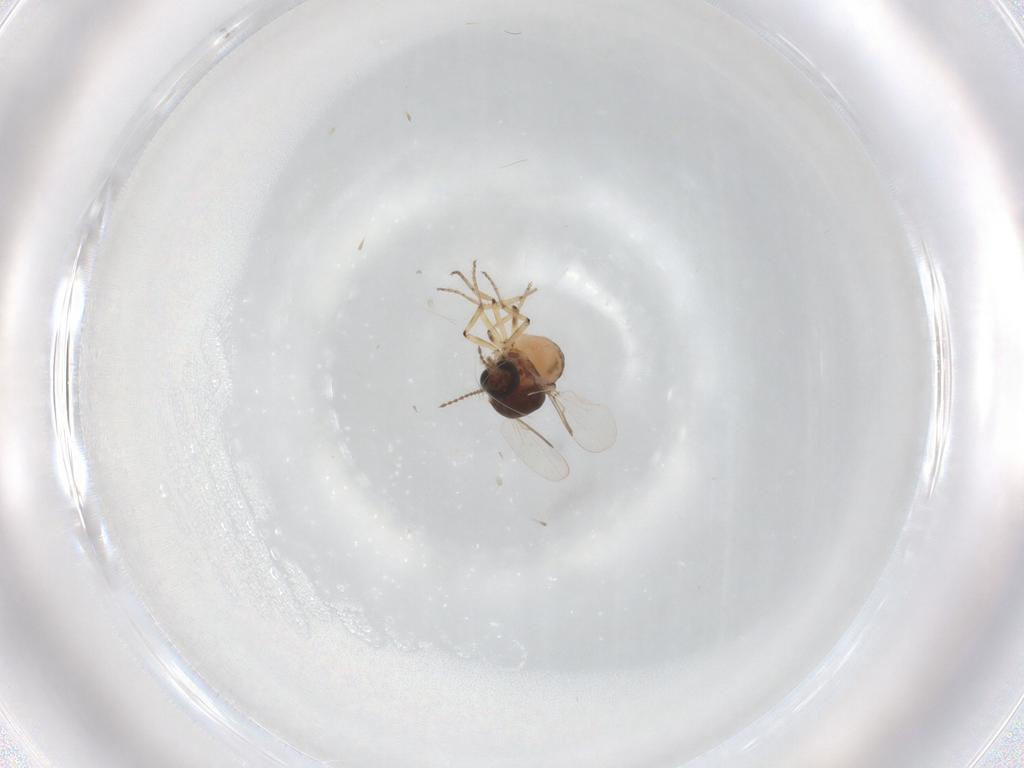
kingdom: Animalia
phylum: Arthropoda
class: Insecta
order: Diptera
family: Ceratopogonidae
